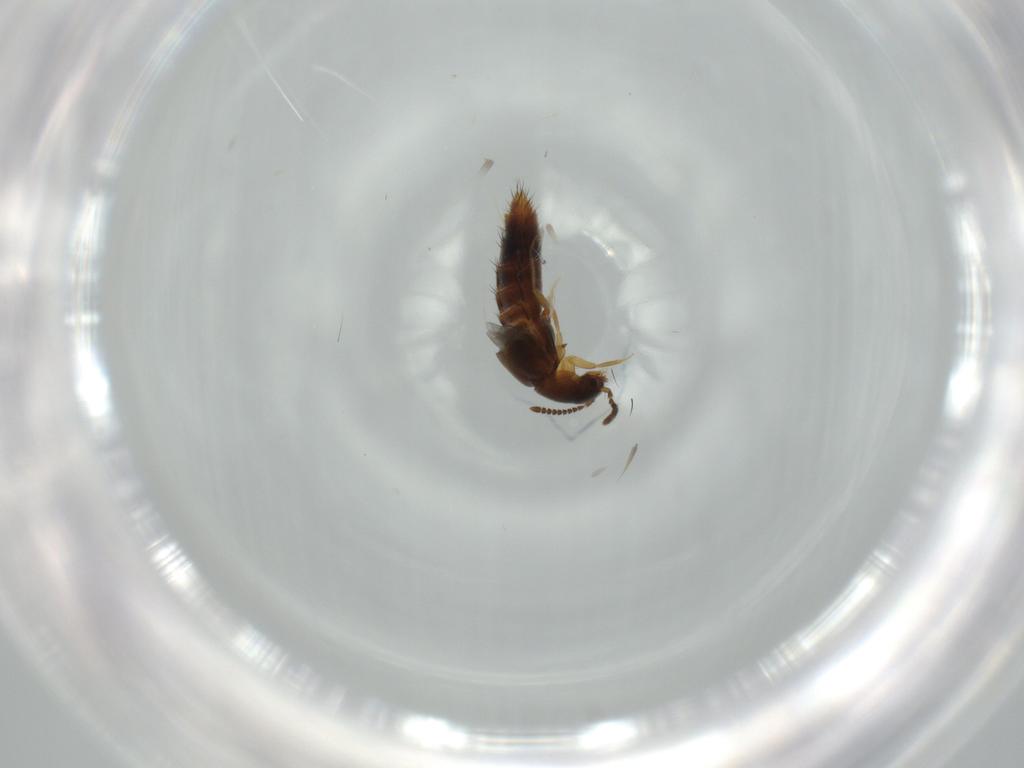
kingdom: Animalia
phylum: Arthropoda
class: Insecta
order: Coleoptera
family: Staphylinidae
